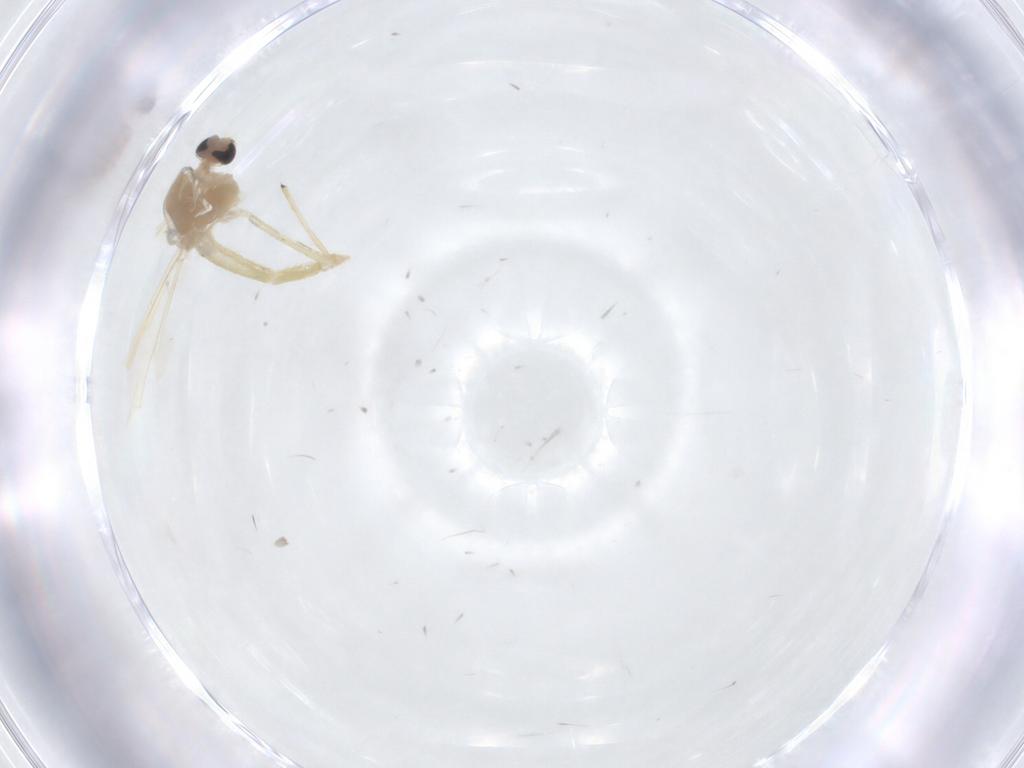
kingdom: Animalia
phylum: Arthropoda
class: Insecta
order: Diptera
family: Chironomidae
